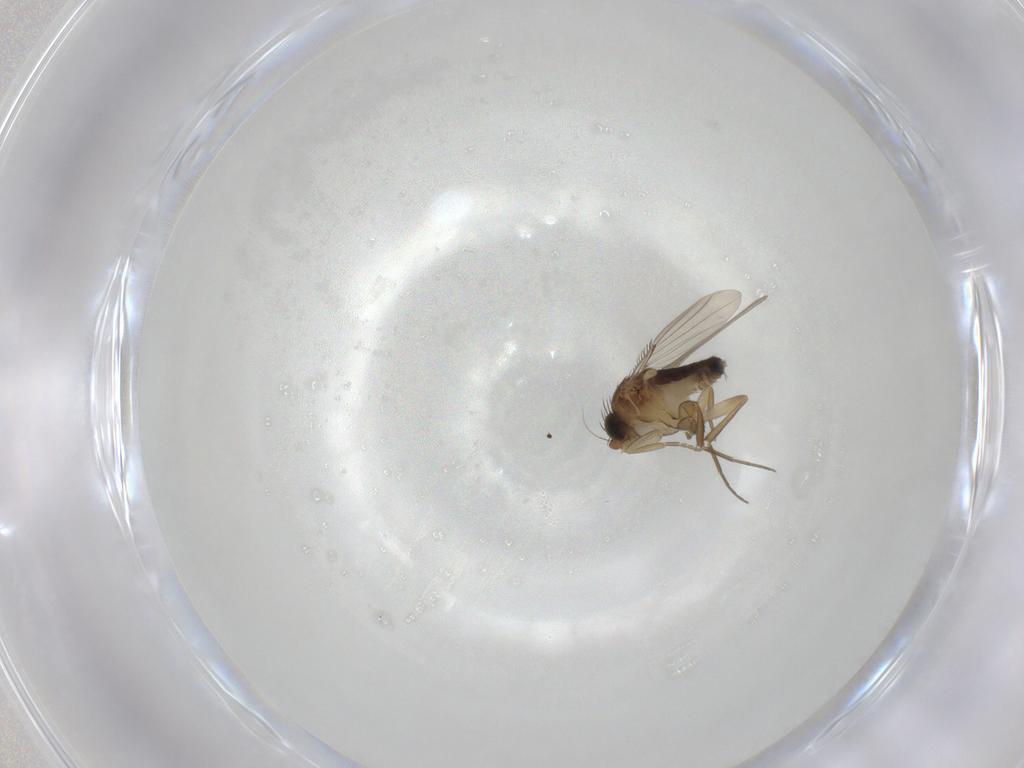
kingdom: Animalia
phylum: Arthropoda
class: Insecta
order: Diptera
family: Phoridae
